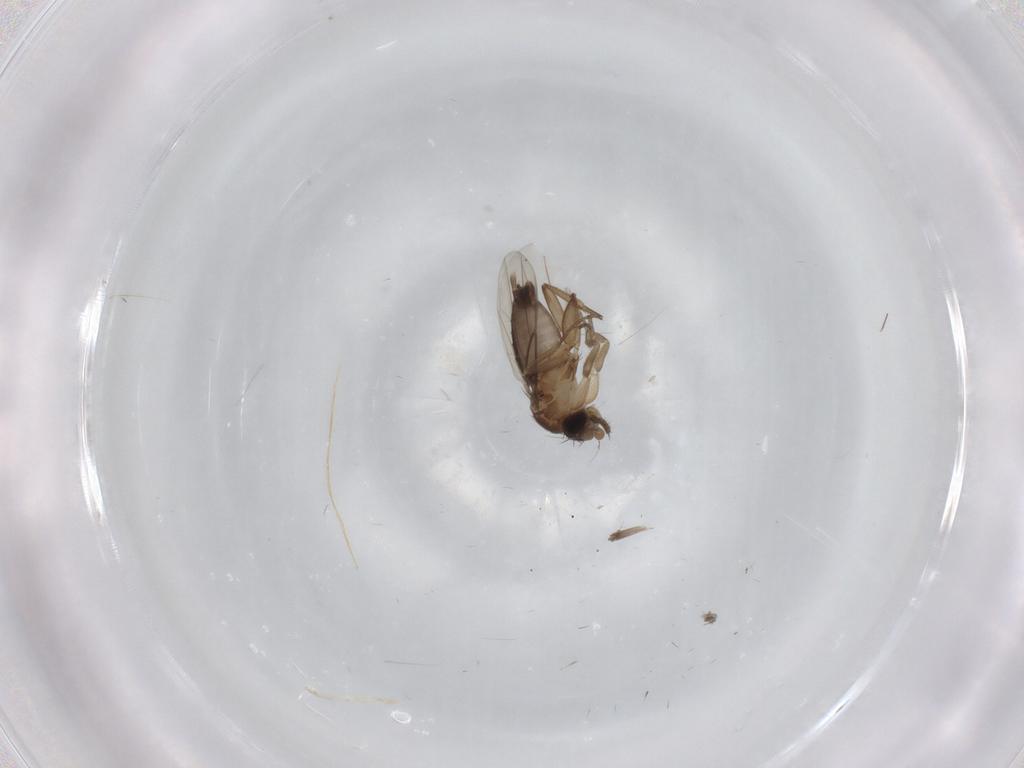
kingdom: Animalia
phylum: Arthropoda
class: Insecta
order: Diptera
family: Phoridae
